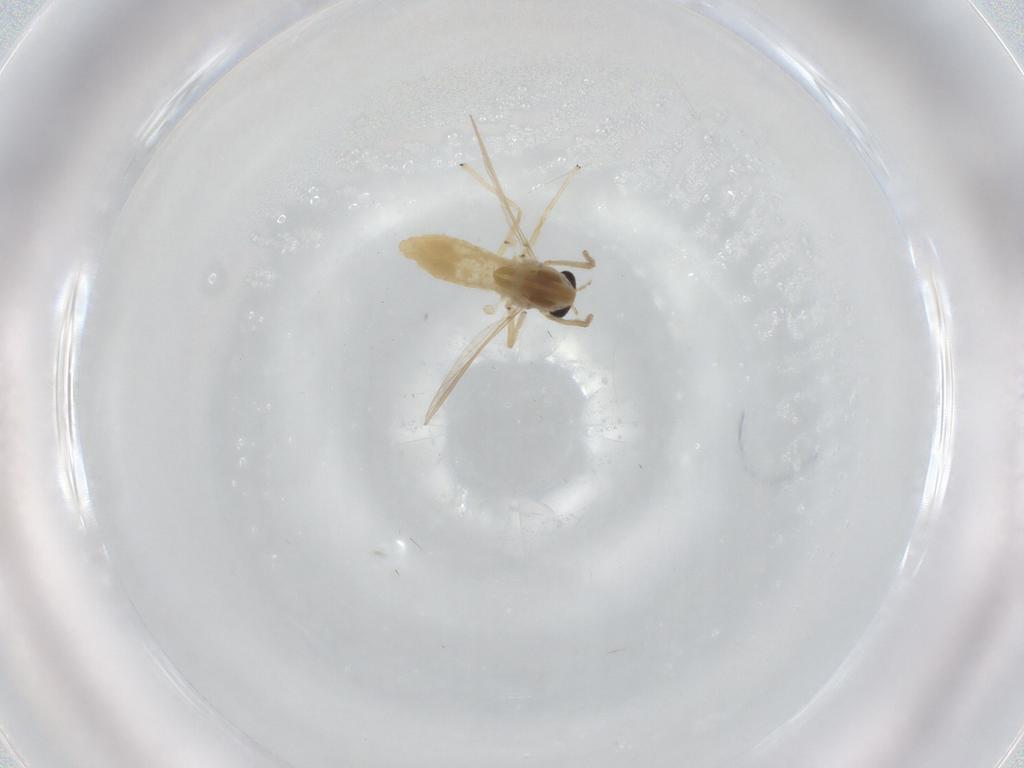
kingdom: Animalia
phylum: Arthropoda
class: Insecta
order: Diptera
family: Chironomidae
